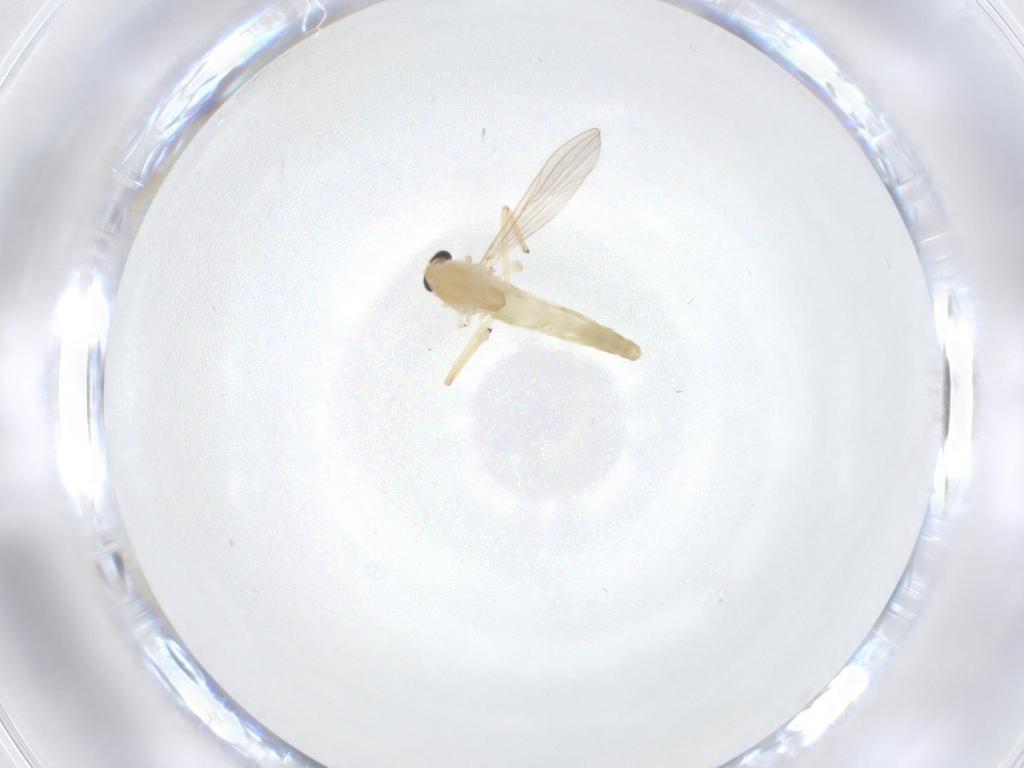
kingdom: Animalia
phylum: Arthropoda
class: Insecta
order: Diptera
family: Chironomidae
